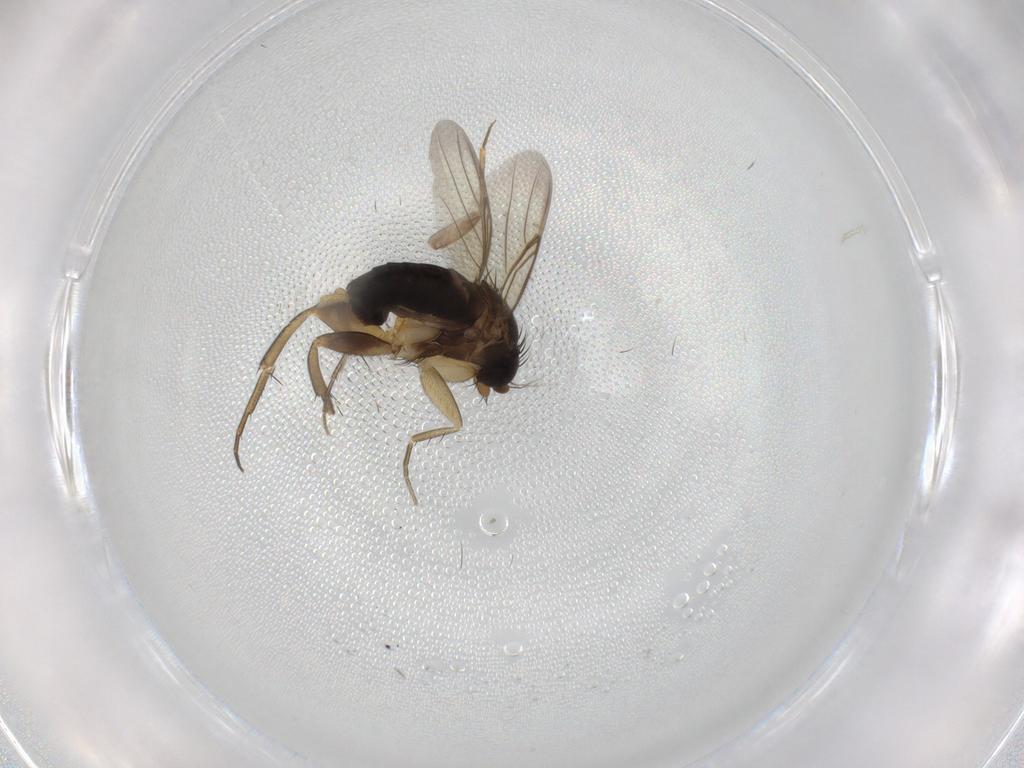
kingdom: Animalia
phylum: Arthropoda
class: Insecta
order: Diptera
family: Phoridae
